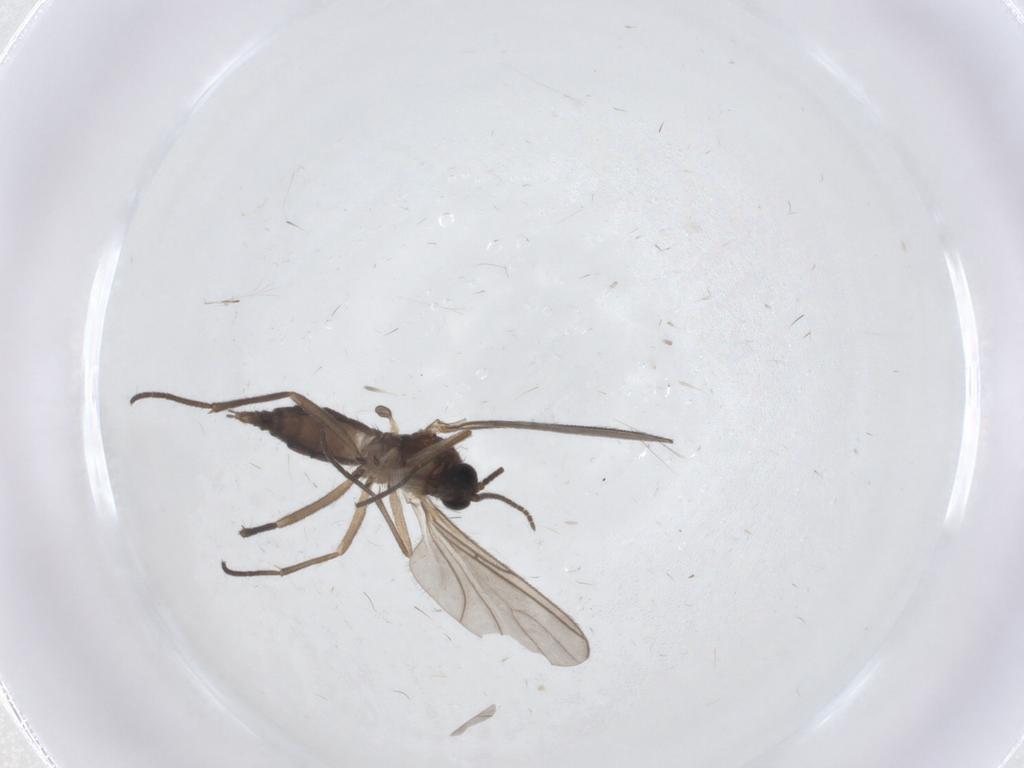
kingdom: Animalia
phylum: Arthropoda
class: Insecta
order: Diptera
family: Sciaridae
